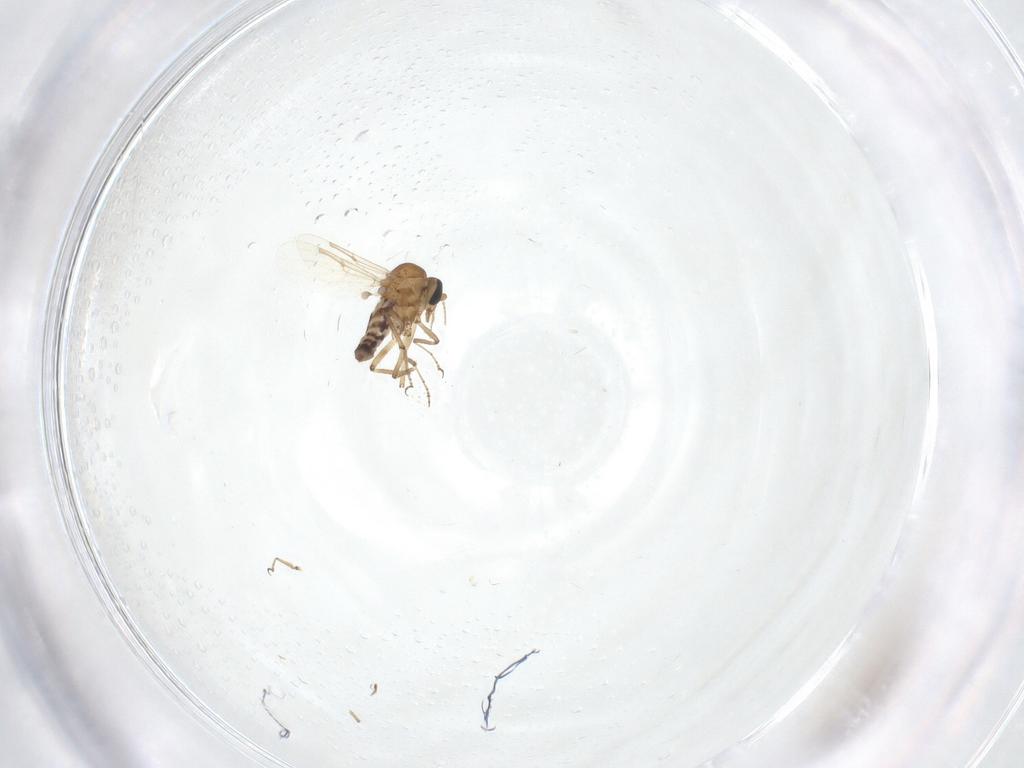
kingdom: Animalia
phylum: Arthropoda
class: Insecta
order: Diptera
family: Ceratopogonidae
